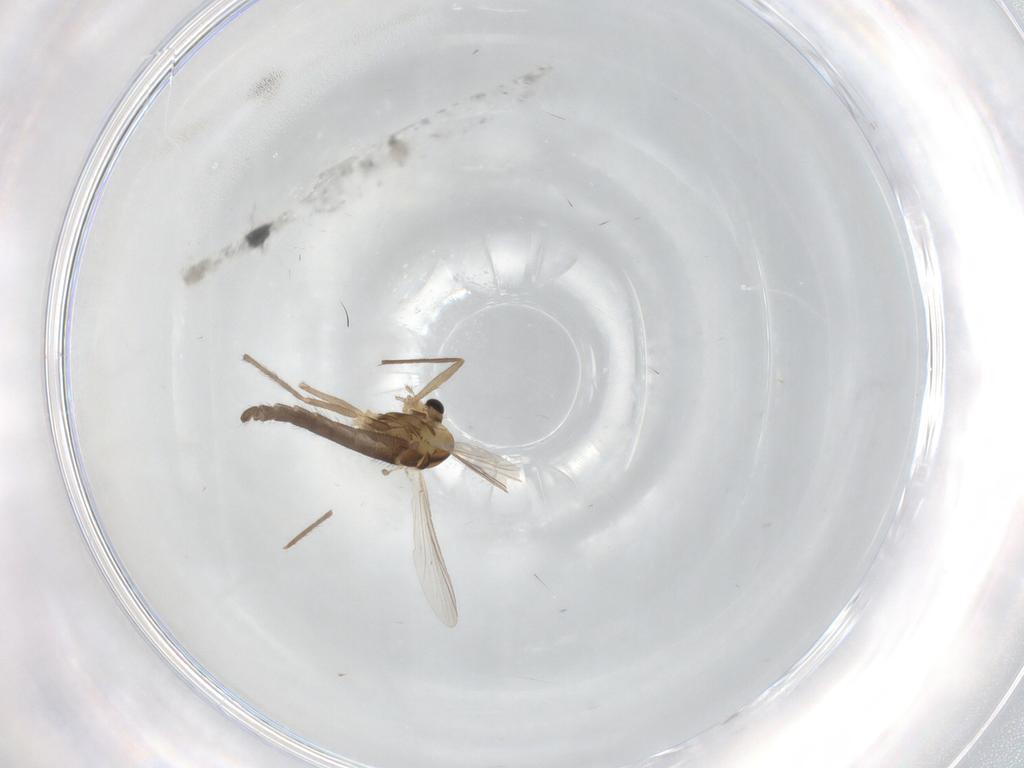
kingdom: Animalia
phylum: Arthropoda
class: Insecta
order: Diptera
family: Chironomidae
